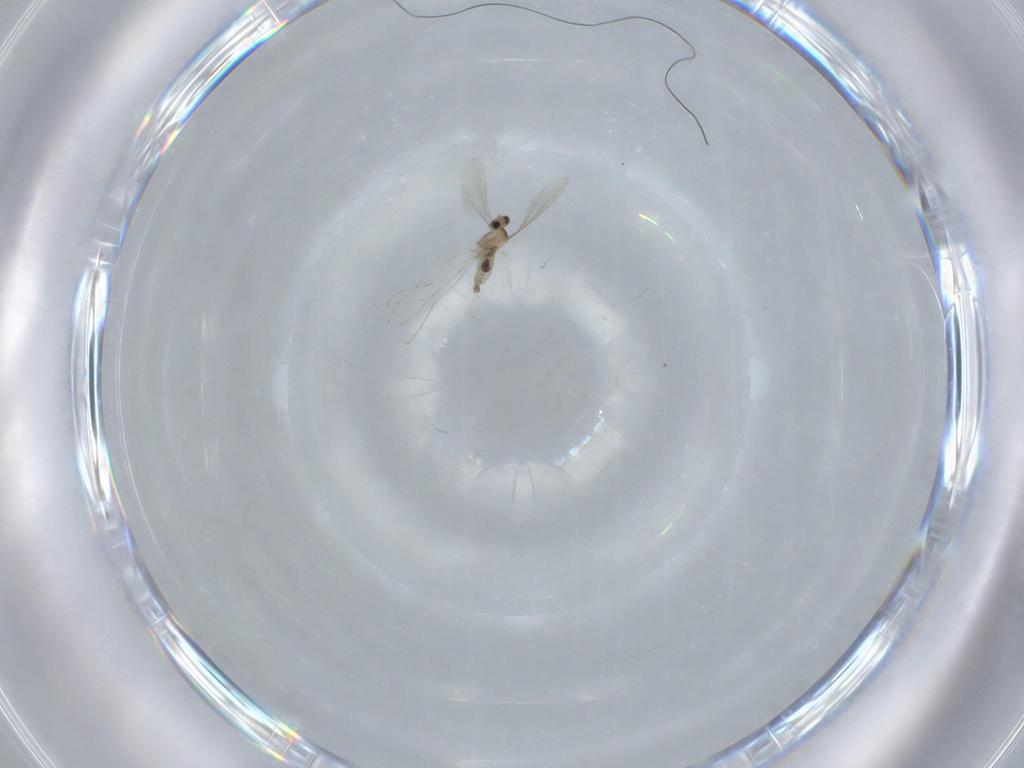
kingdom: Animalia
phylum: Arthropoda
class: Insecta
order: Diptera
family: Cecidomyiidae
